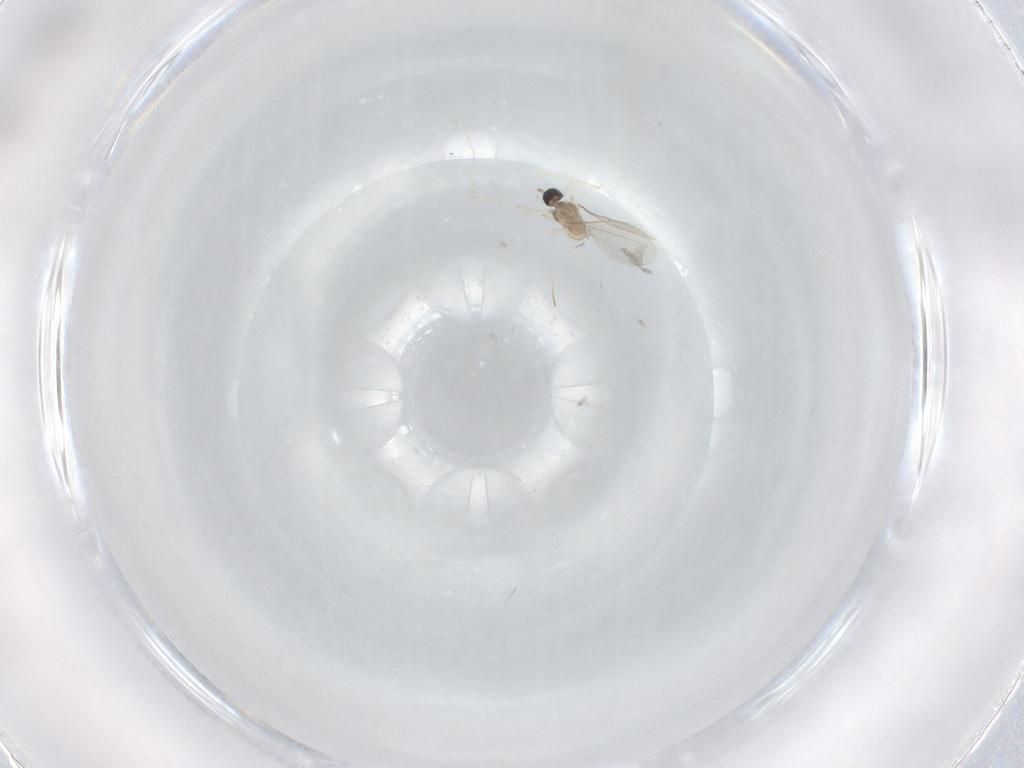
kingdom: Animalia
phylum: Arthropoda
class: Insecta
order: Diptera
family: Cecidomyiidae
